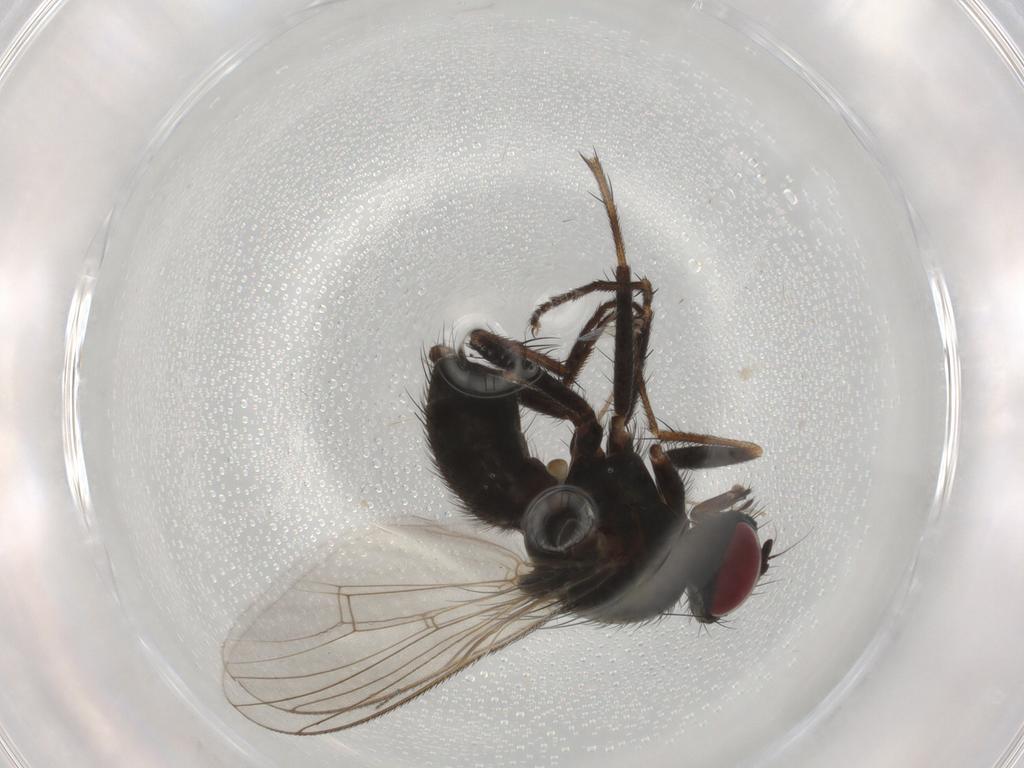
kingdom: Animalia
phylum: Arthropoda
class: Insecta
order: Diptera
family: Muscidae
